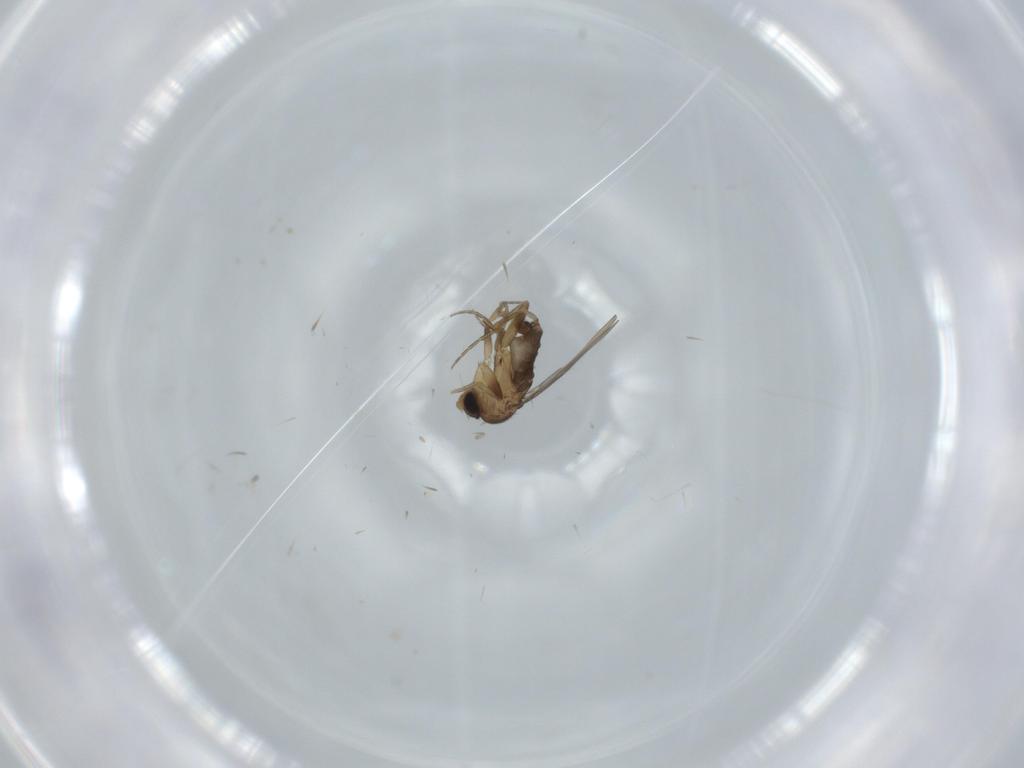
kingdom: Animalia
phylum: Arthropoda
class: Insecta
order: Diptera
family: Phoridae
